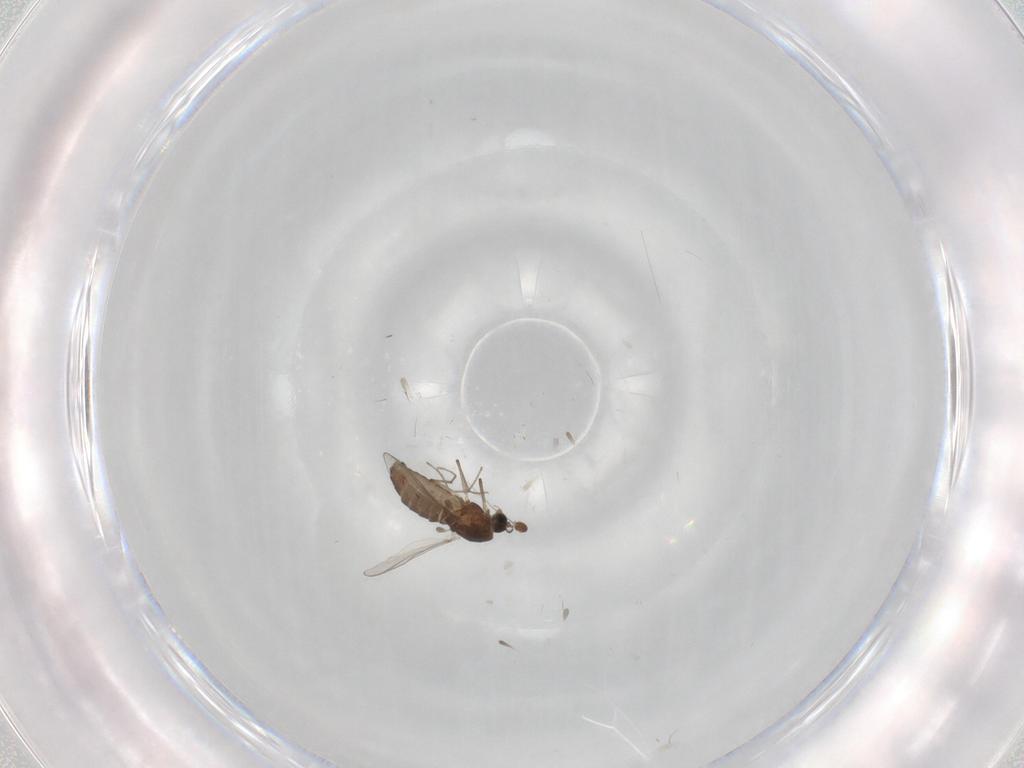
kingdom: Animalia
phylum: Arthropoda
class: Insecta
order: Diptera
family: Chironomidae
